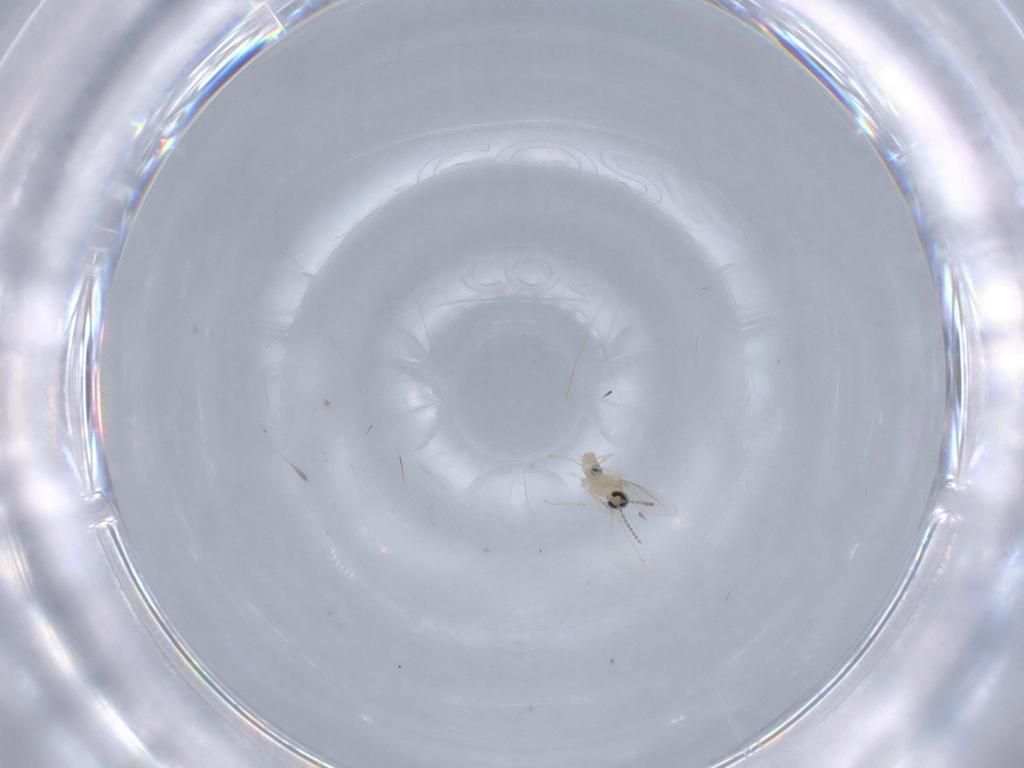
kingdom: Animalia
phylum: Arthropoda
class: Insecta
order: Diptera
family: Cecidomyiidae
